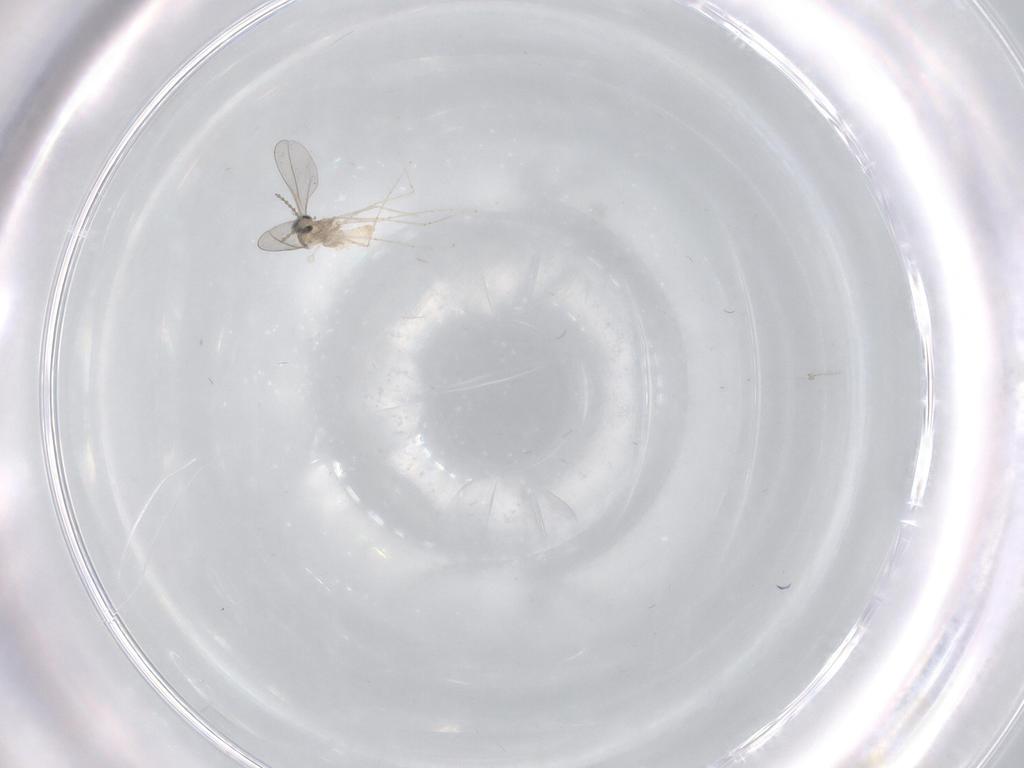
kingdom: Animalia
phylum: Arthropoda
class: Insecta
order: Diptera
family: Cecidomyiidae
